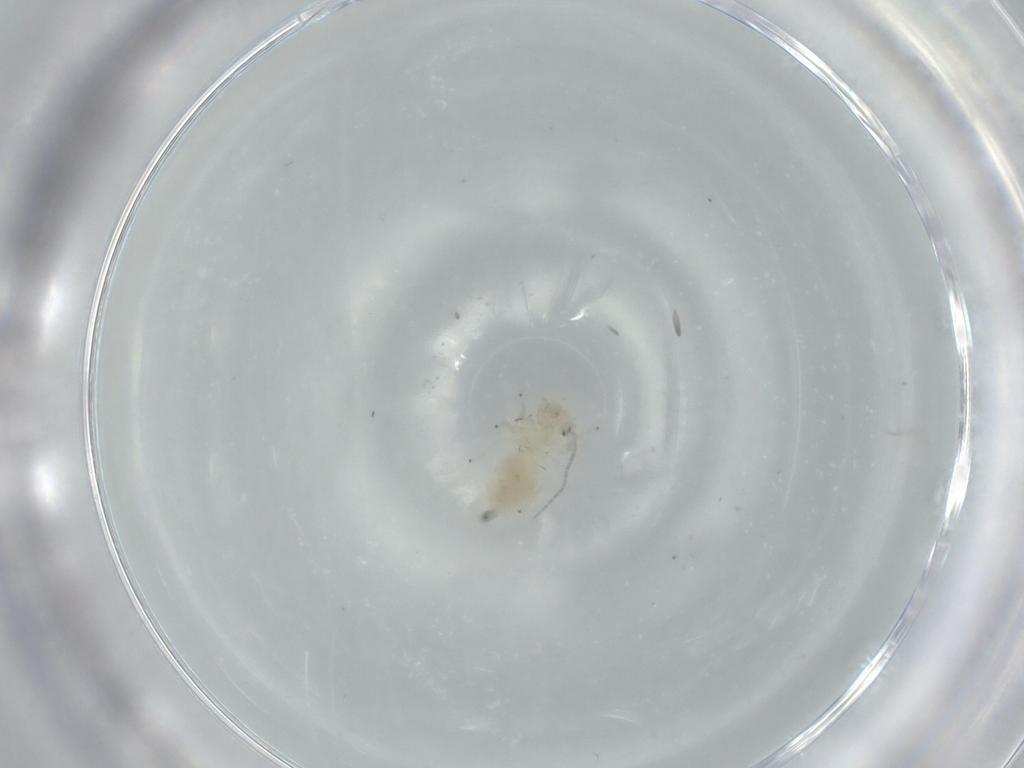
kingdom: Animalia
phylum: Arthropoda
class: Insecta
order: Psocodea
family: Caeciliusidae
